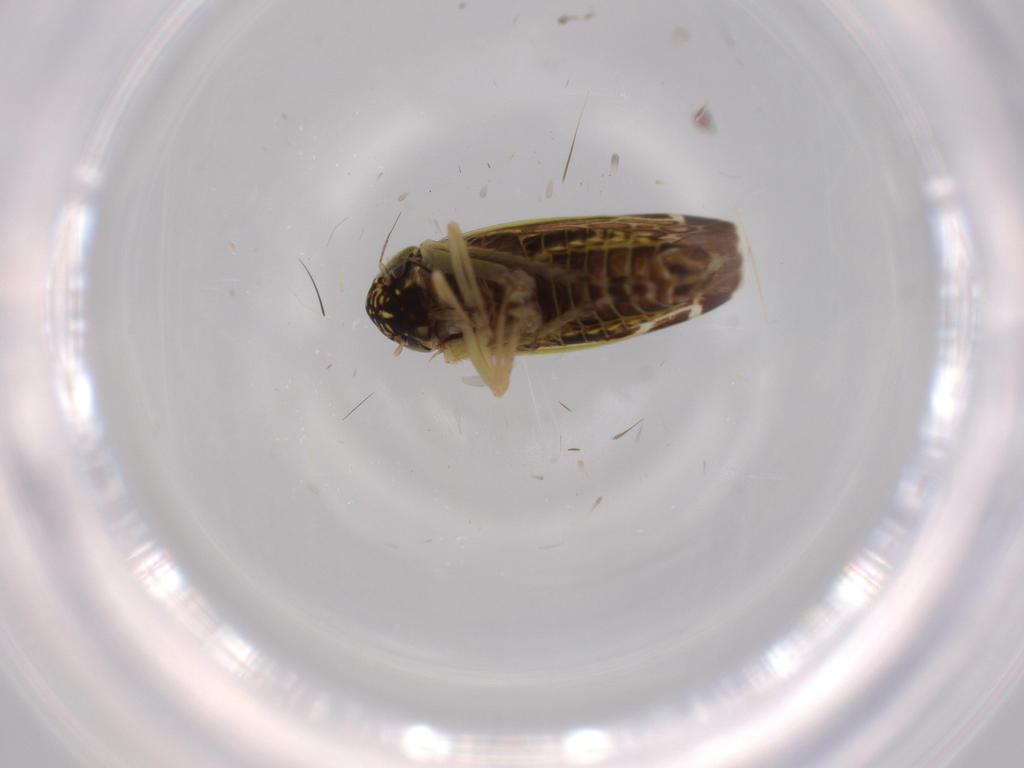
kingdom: Animalia
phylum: Arthropoda
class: Insecta
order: Hemiptera
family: Cicadellidae
